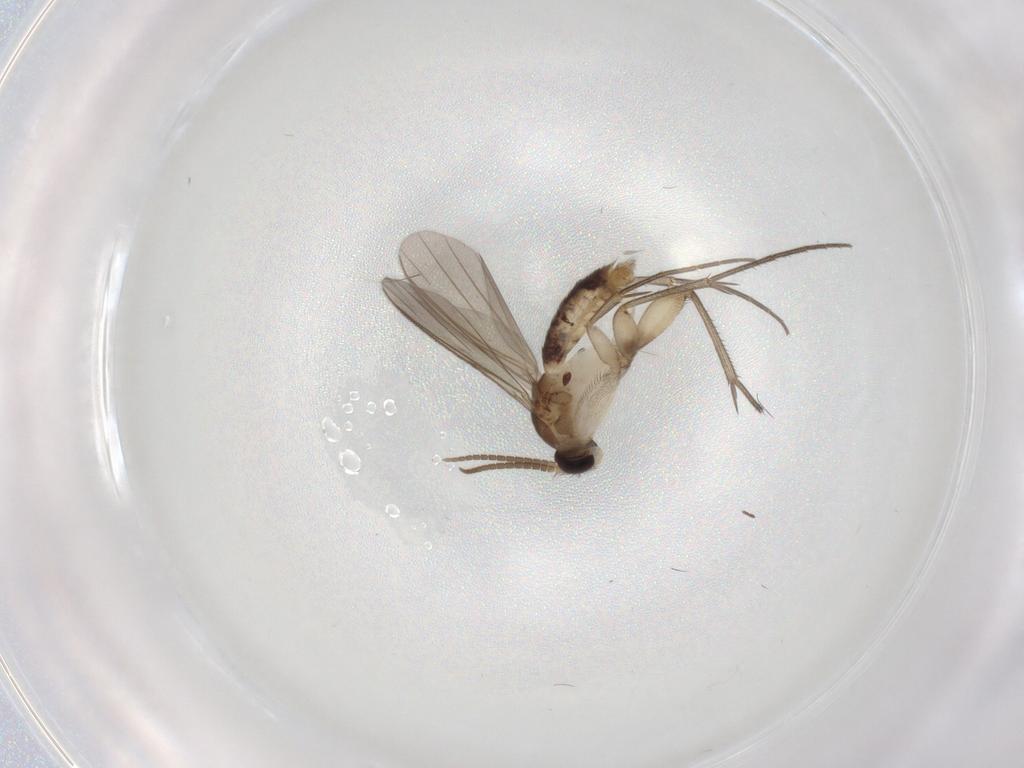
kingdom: Animalia
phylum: Arthropoda
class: Insecta
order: Diptera
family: Mycetophilidae
